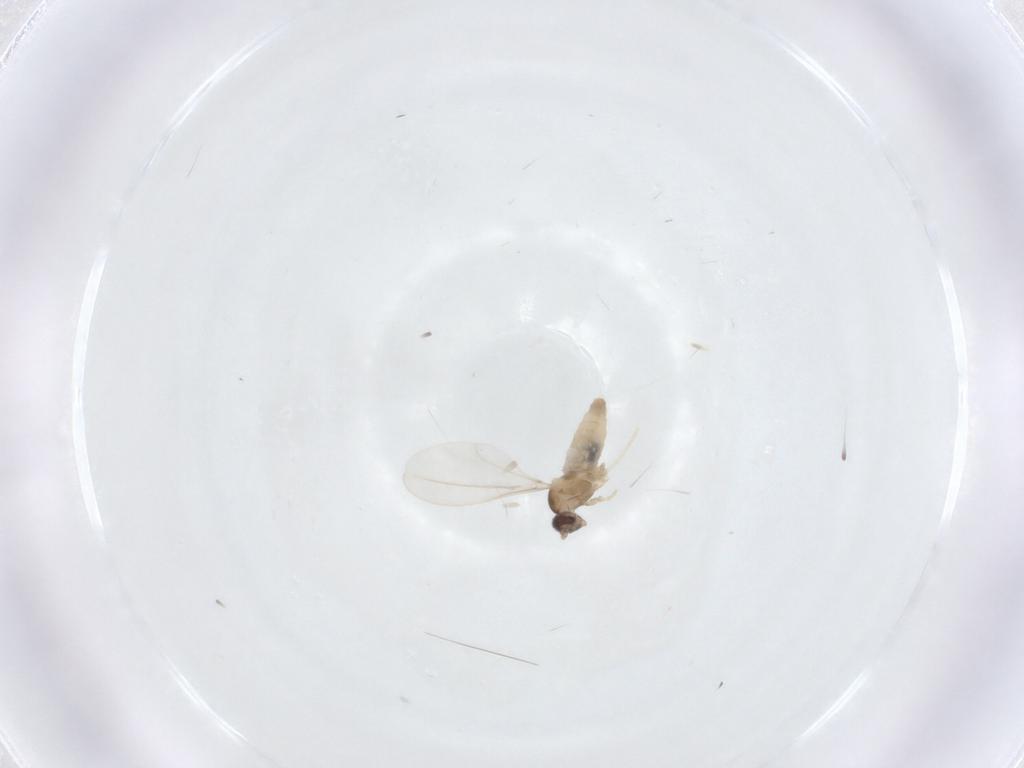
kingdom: Animalia
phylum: Arthropoda
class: Insecta
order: Diptera
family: Cecidomyiidae
